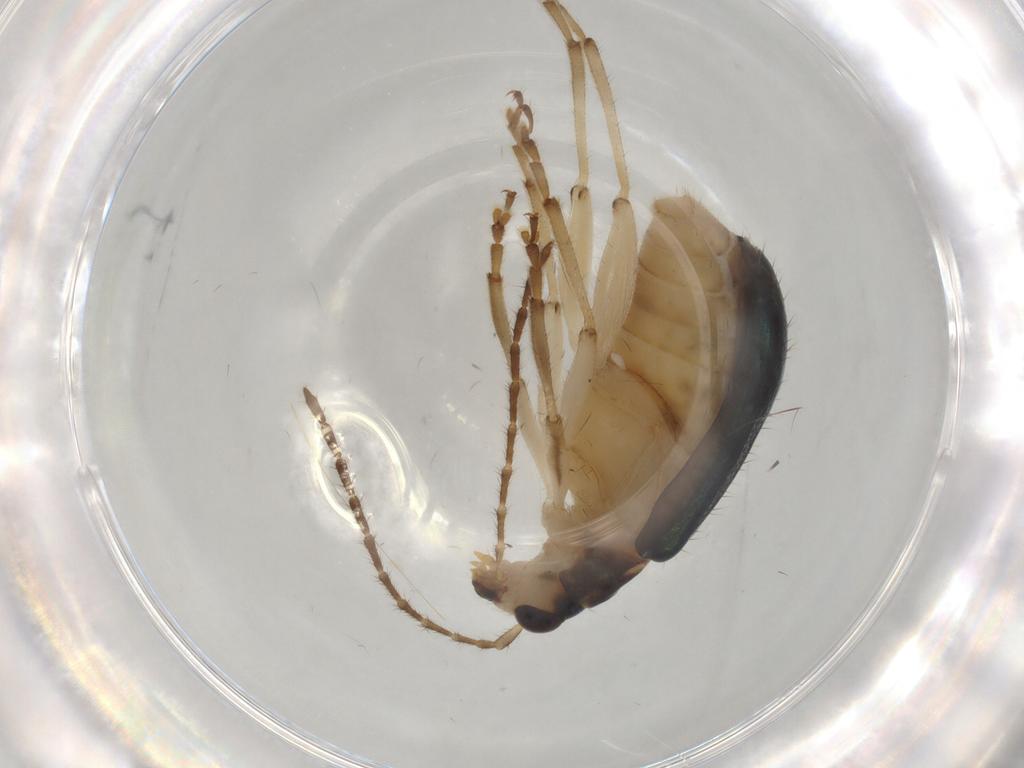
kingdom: Animalia
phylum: Arthropoda
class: Insecta
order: Coleoptera
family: Chrysomelidae
